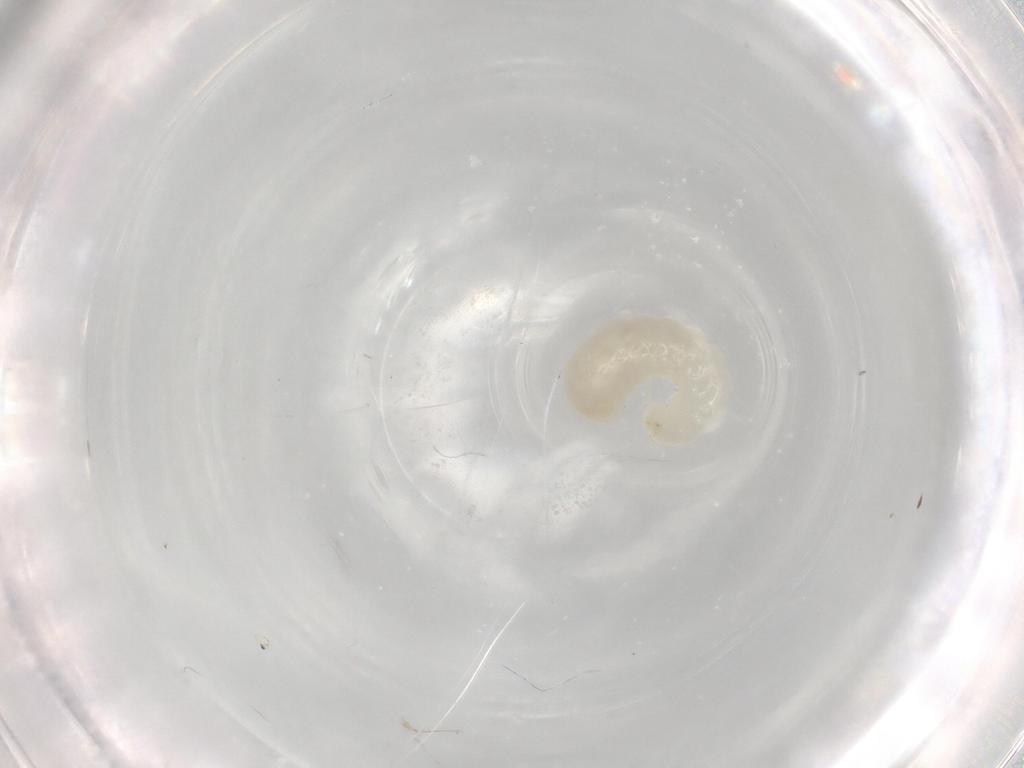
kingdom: Animalia
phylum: Arthropoda
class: Insecta
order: Hymenoptera
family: Formicidae
